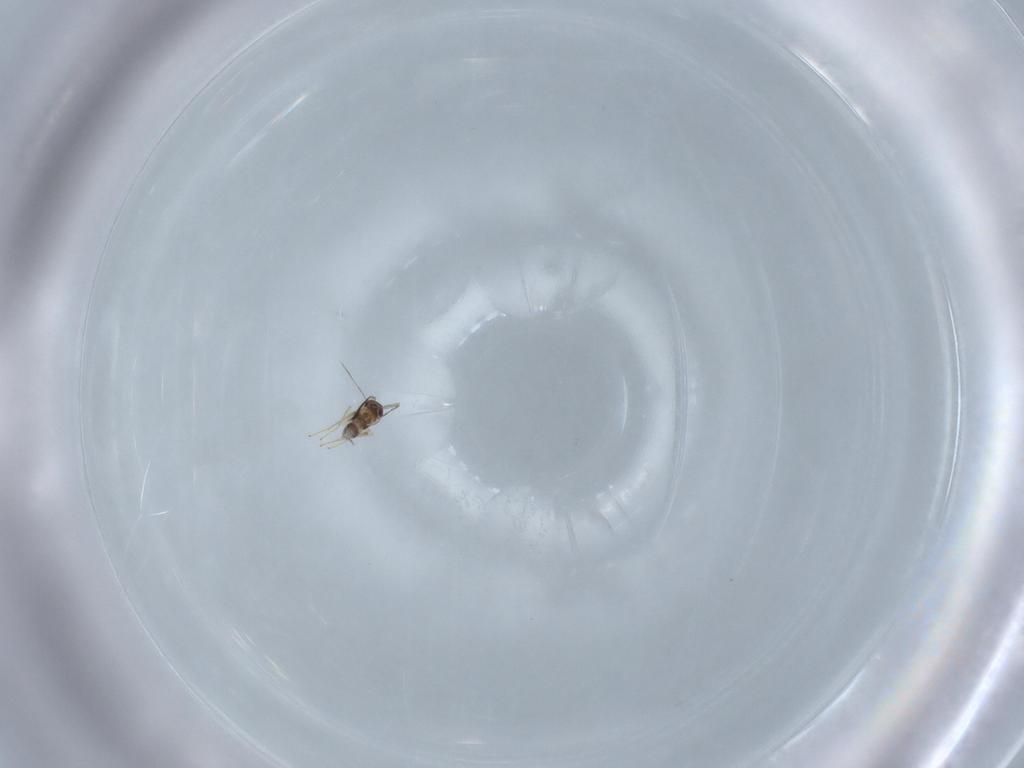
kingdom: Animalia
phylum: Arthropoda
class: Insecta
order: Hymenoptera
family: Mymaridae
